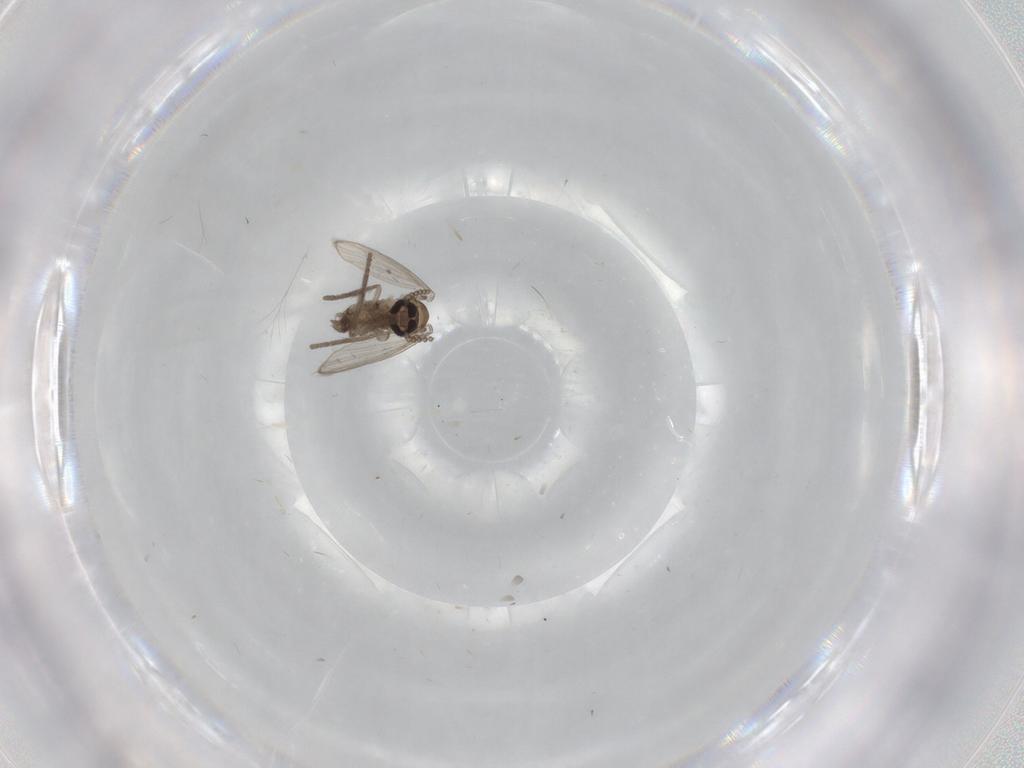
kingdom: Animalia
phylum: Arthropoda
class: Insecta
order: Diptera
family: Psychodidae
